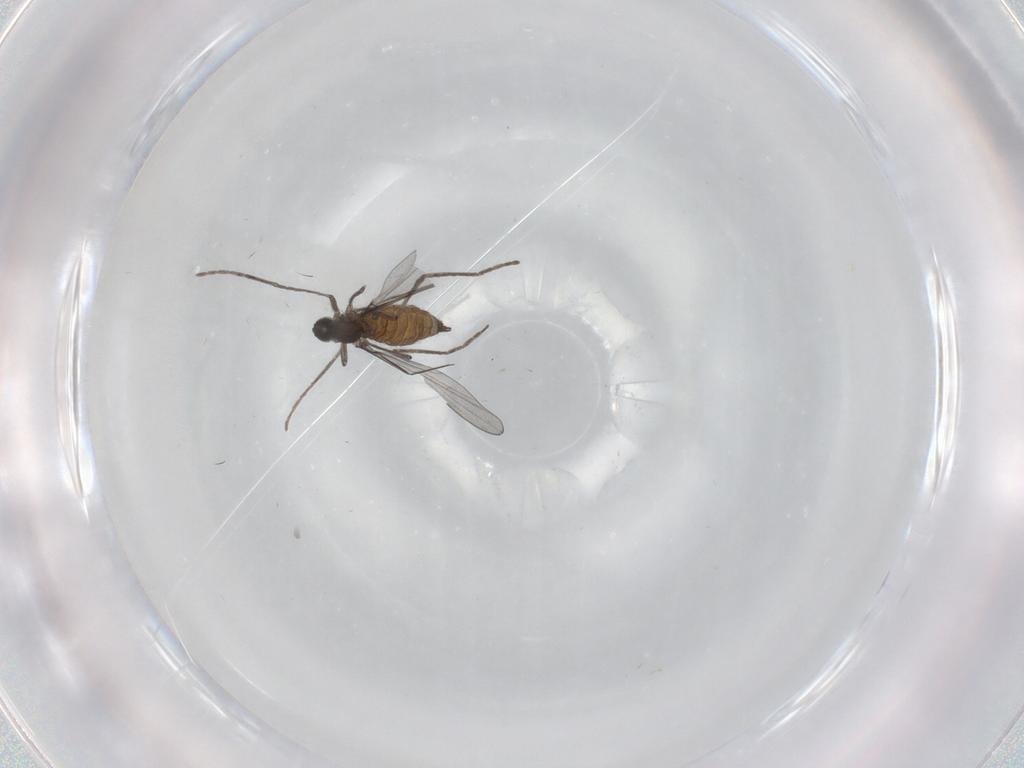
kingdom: Animalia
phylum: Arthropoda
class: Insecta
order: Diptera
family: Cecidomyiidae
